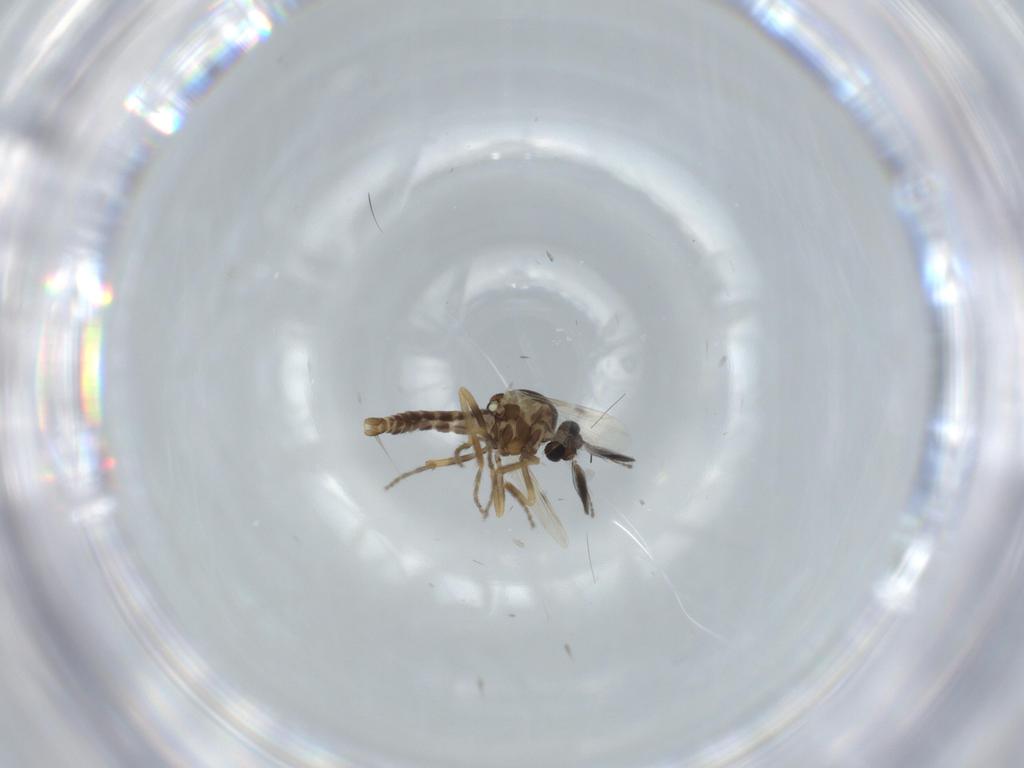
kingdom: Animalia
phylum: Arthropoda
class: Insecta
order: Diptera
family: Ceratopogonidae
